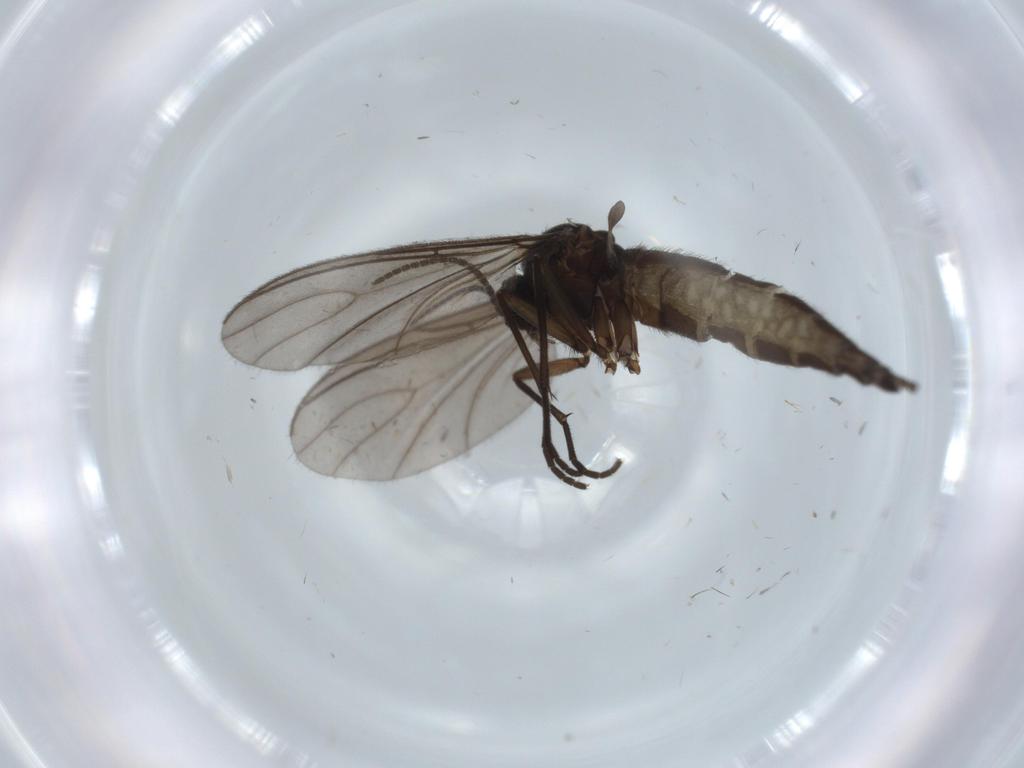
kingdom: Animalia
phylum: Arthropoda
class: Insecta
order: Diptera
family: Sciaridae
